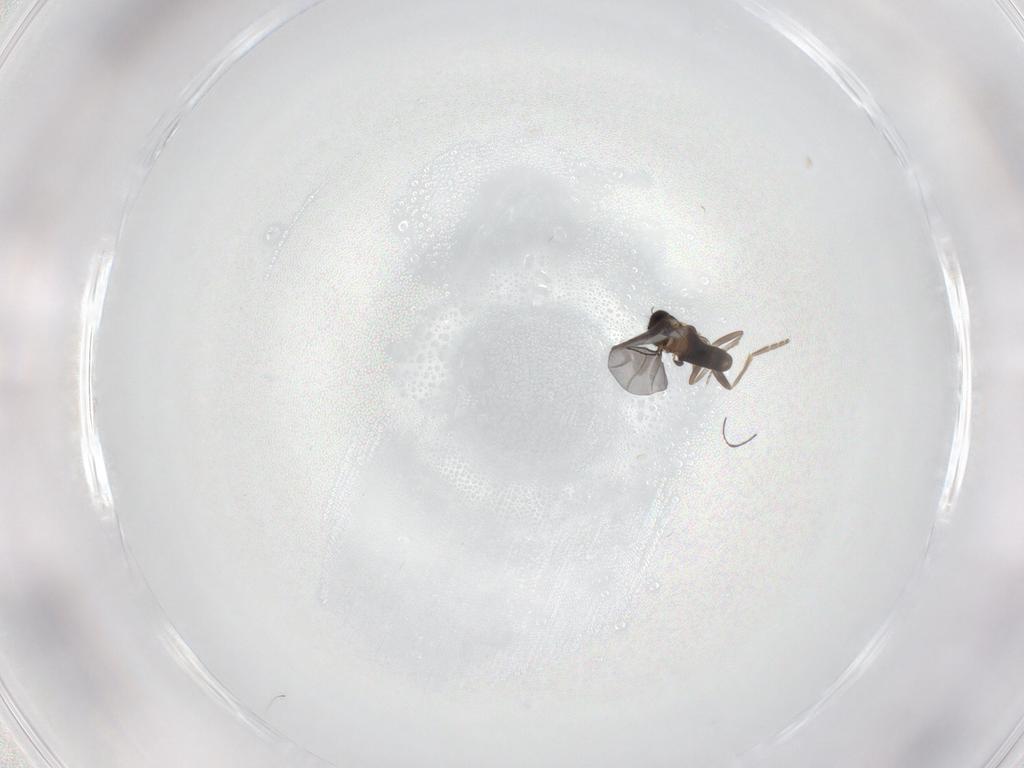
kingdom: Animalia
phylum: Arthropoda
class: Insecta
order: Diptera
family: Limoniidae
